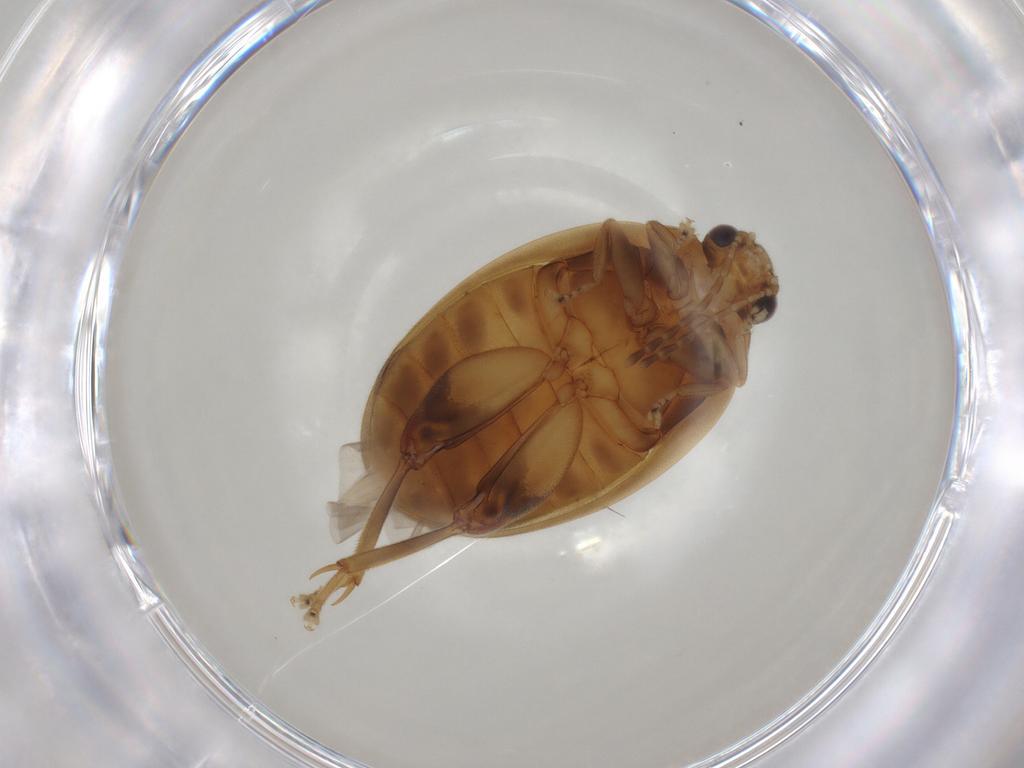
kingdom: Animalia
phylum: Arthropoda
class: Insecta
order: Coleoptera
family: Scirtidae
